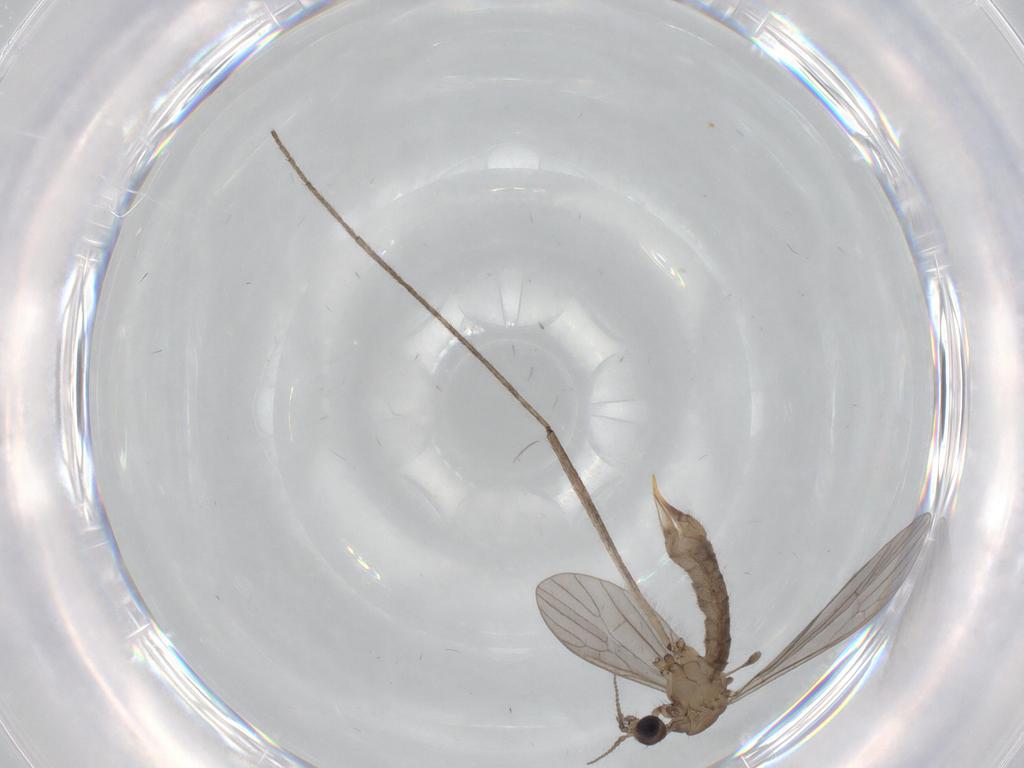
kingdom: Animalia
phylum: Arthropoda
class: Insecta
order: Diptera
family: Limoniidae
